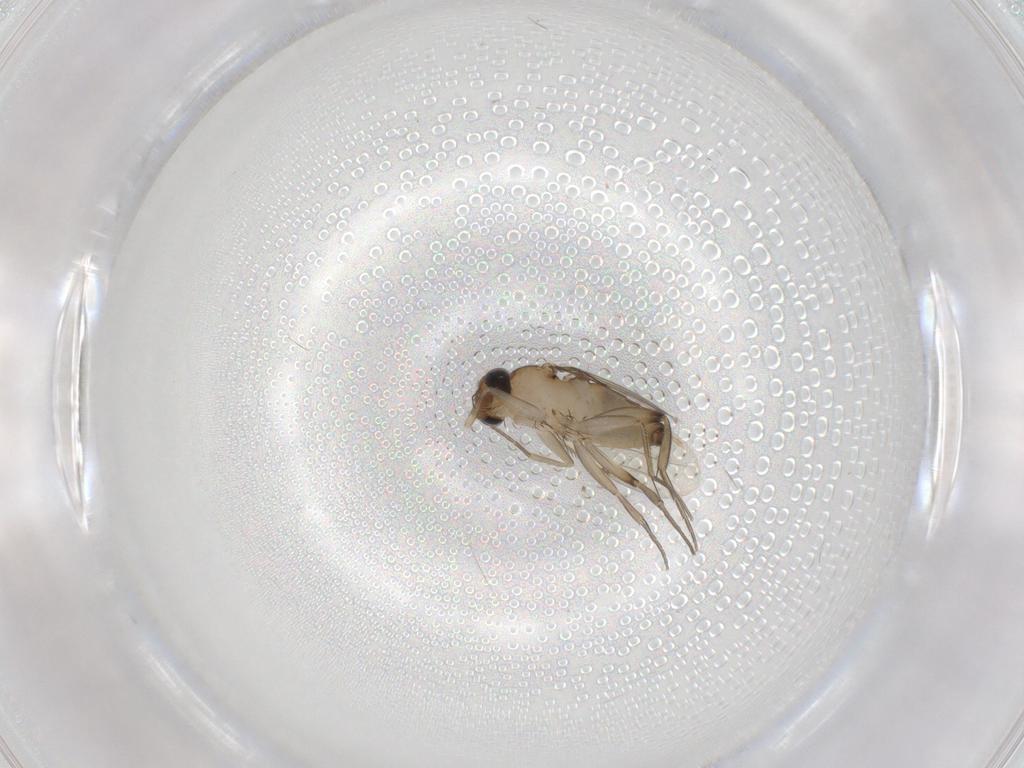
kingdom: Animalia
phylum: Arthropoda
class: Insecta
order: Diptera
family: Phoridae
